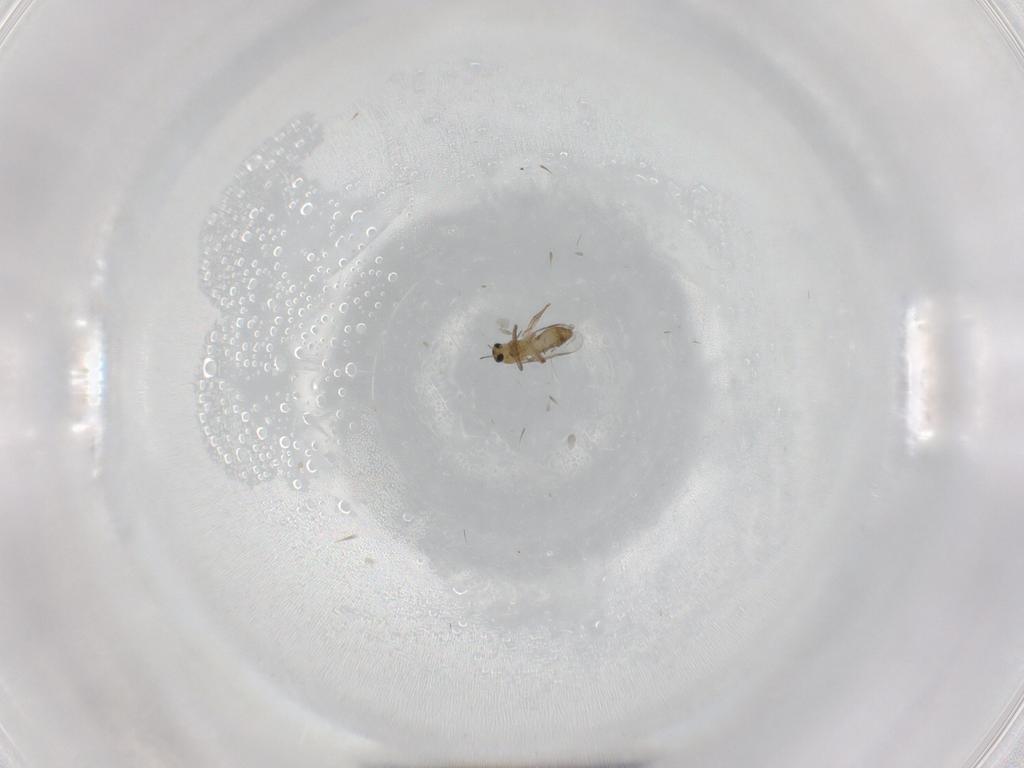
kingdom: Animalia
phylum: Arthropoda
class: Insecta
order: Diptera
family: Chironomidae
